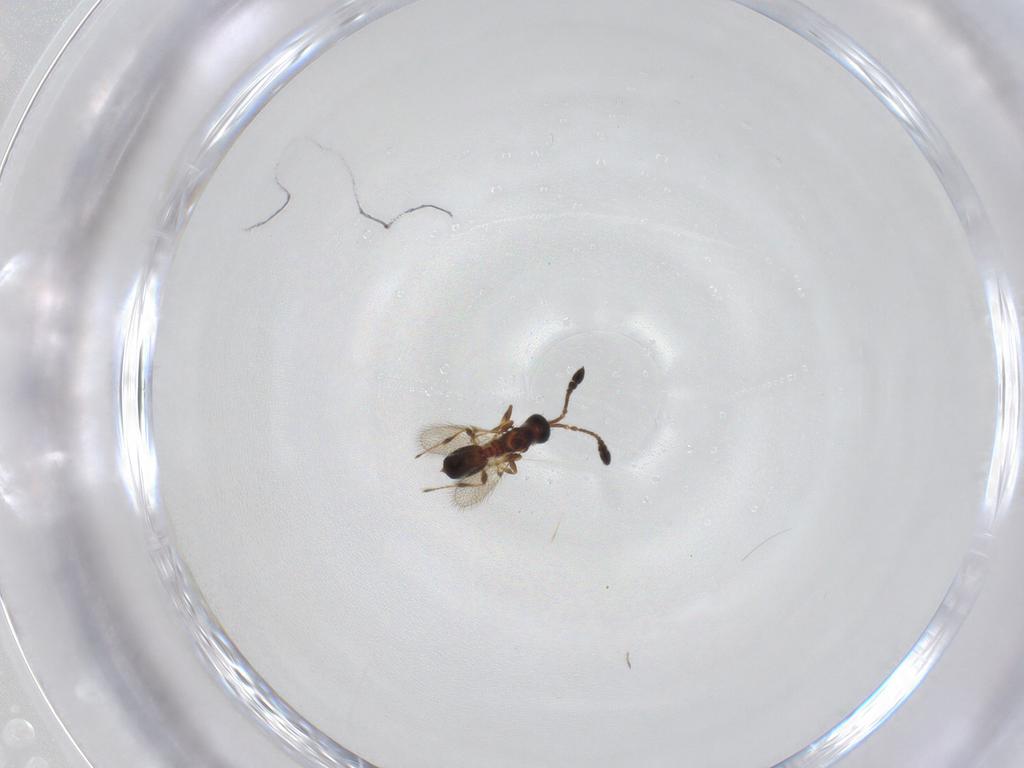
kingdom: Animalia
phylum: Arthropoda
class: Insecta
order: Hymenoptera
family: Diapriidae
